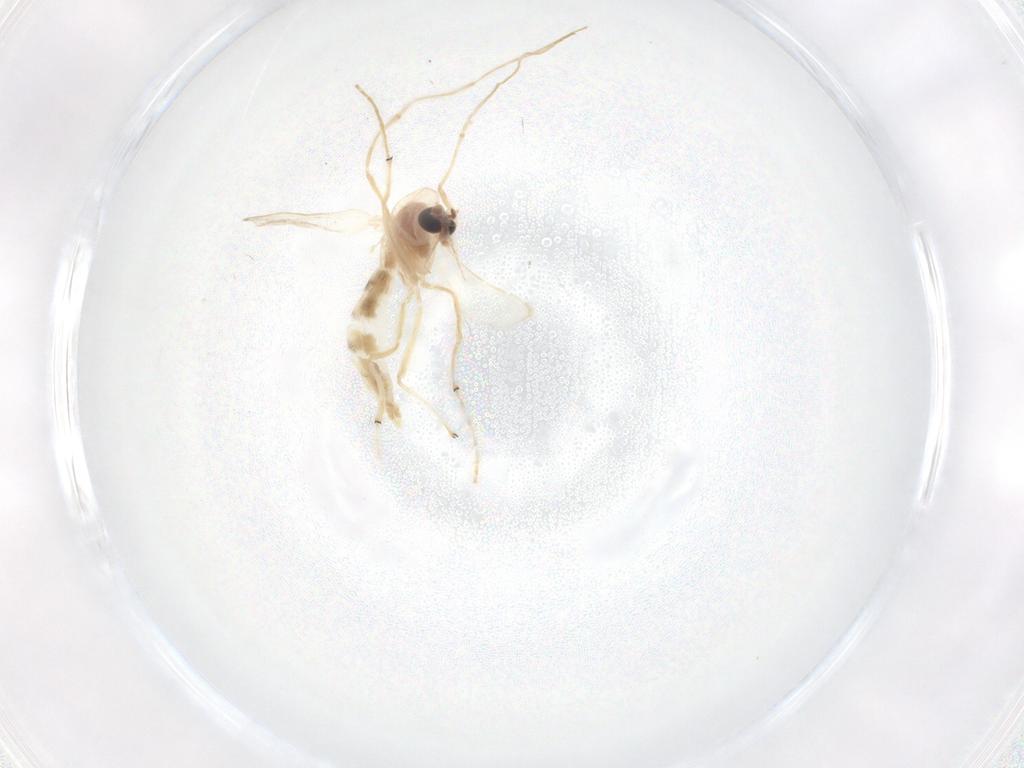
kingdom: Animalia
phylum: Arthropoda
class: Insecta
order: Diptera
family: Chironomidae
